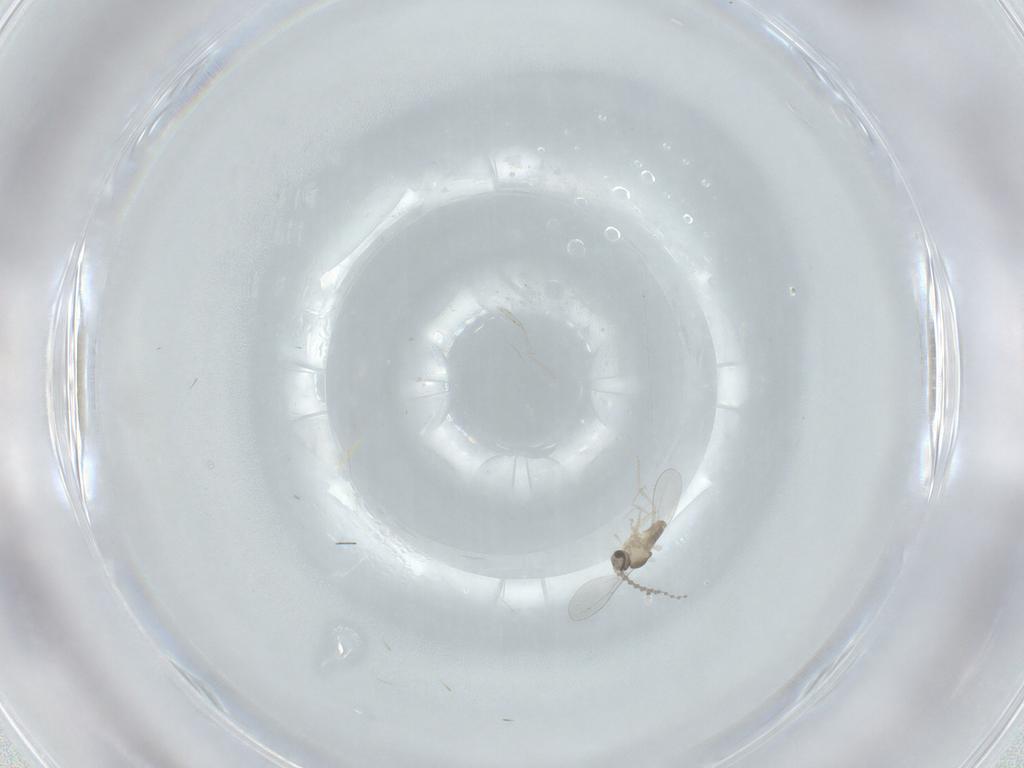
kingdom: Animalia
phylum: Arthropoda
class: Insecta
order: Diptera
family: Cecidomyiidae
